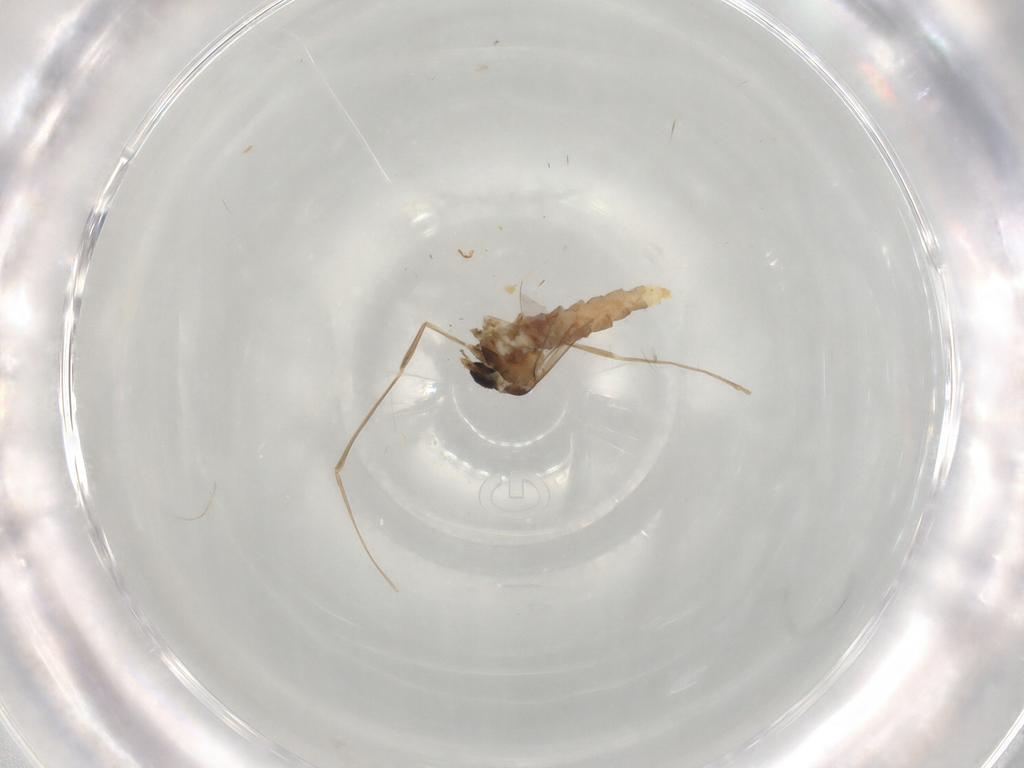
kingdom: Animalia
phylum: Arthropoda
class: Insecta
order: Diptera
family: Cecidomyiidae
